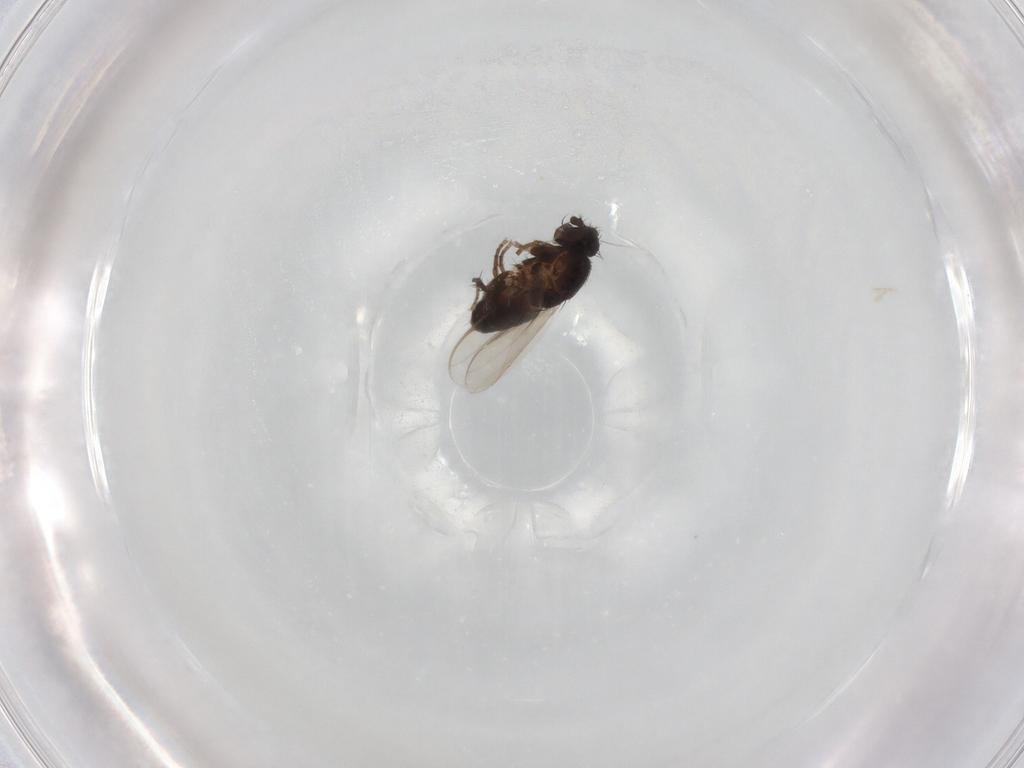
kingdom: Animalia
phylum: Arthropoda
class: Insecta
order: Diptera
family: Sphaeroceridae
